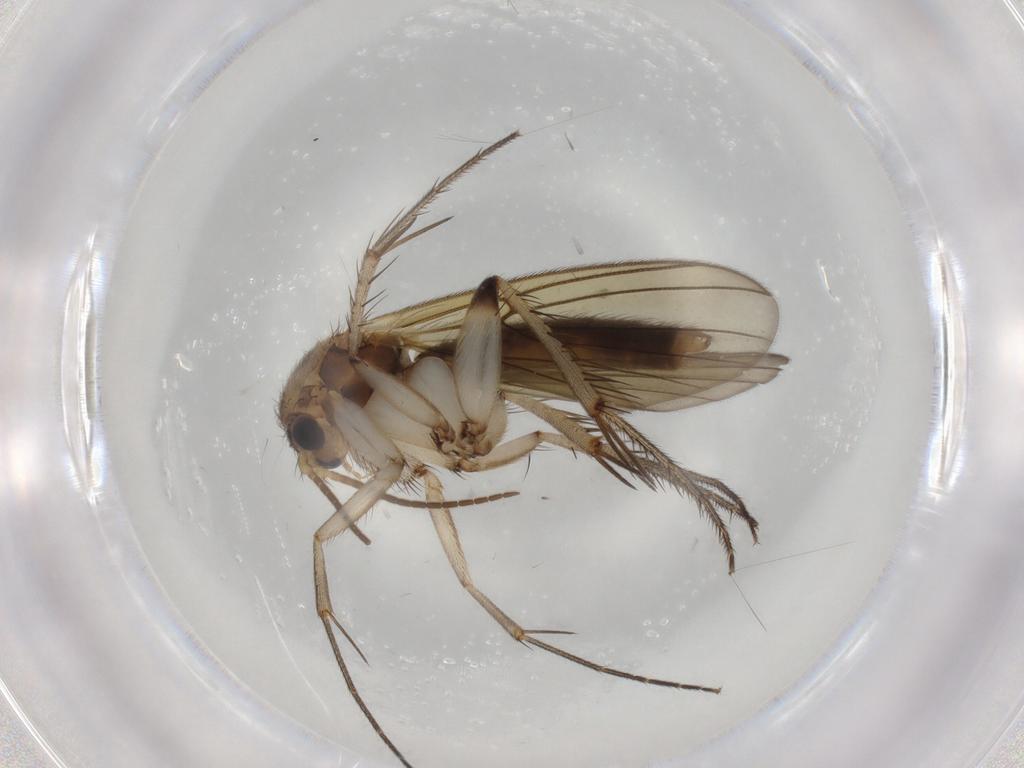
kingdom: Animalia
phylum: Arthropoda
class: Insecta
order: Diptera
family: Mycetophilidae
